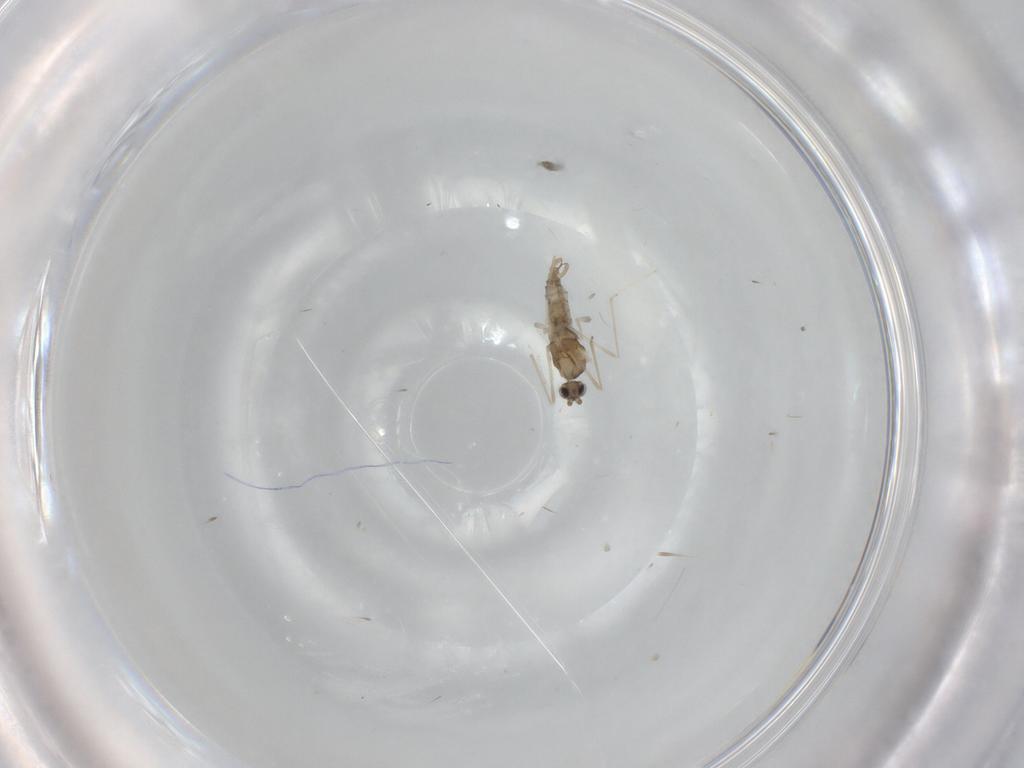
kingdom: Animalia
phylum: Arthropoda
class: Insecta
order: Diptera
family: Cecidomyiidae
